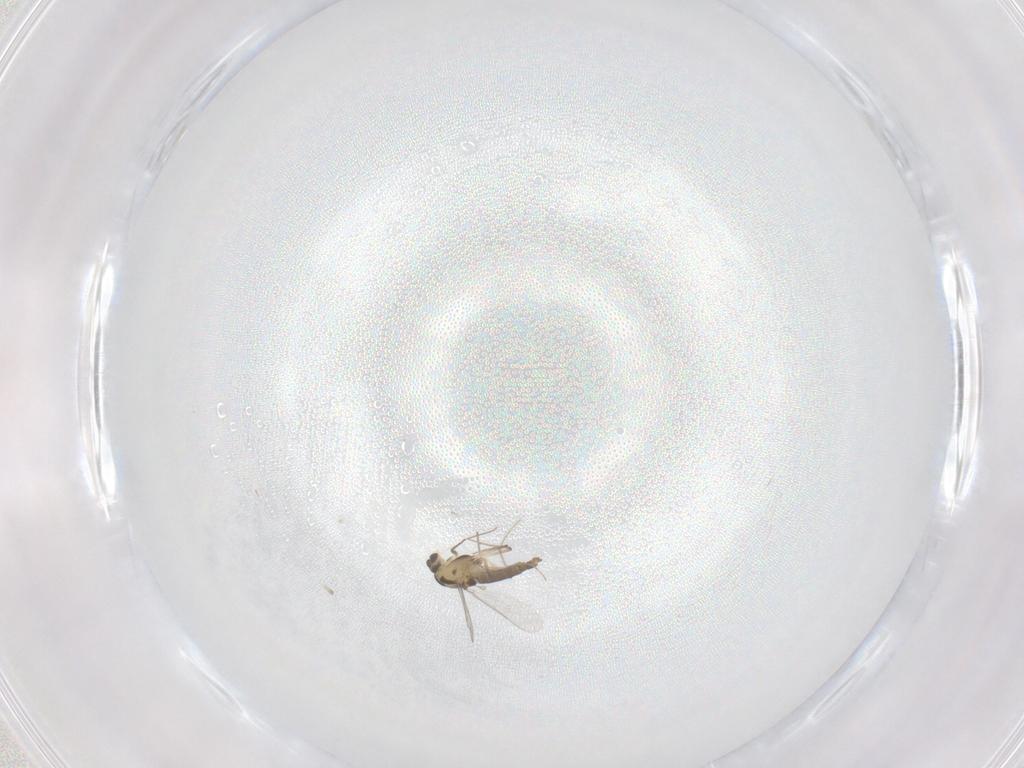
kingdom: Animalia
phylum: Arthropoda
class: Insecta
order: Diptera
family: Chironomidae
